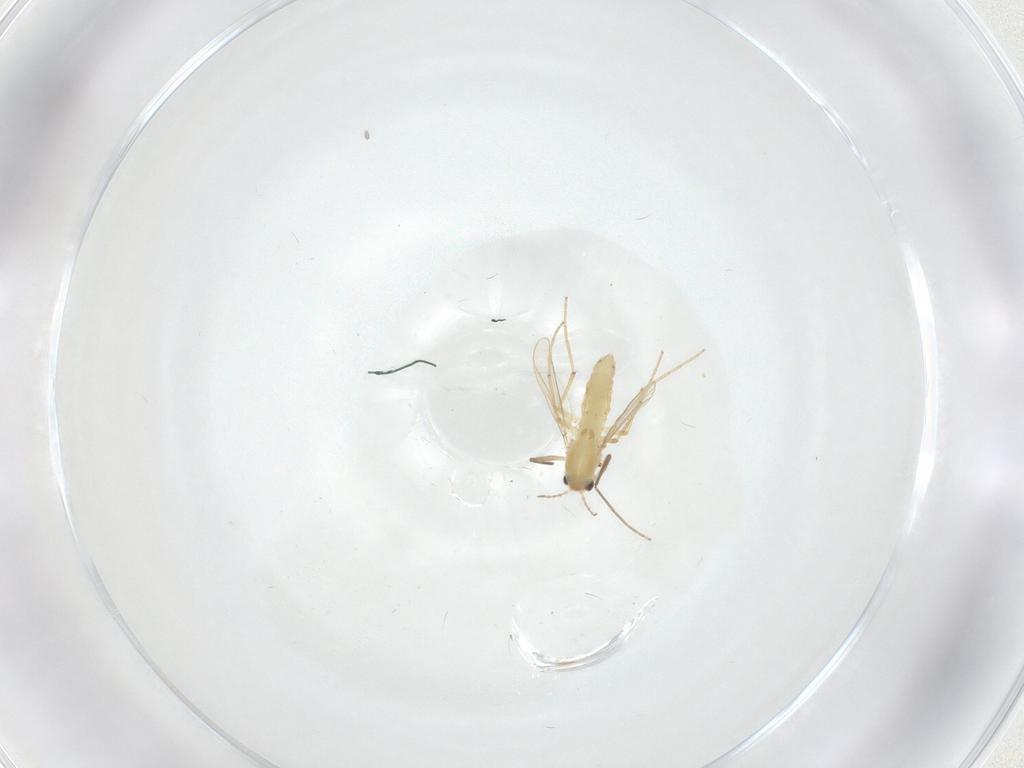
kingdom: Animalia
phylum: Arthropoda
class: Insecta
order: Diptera
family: Chironomidae
